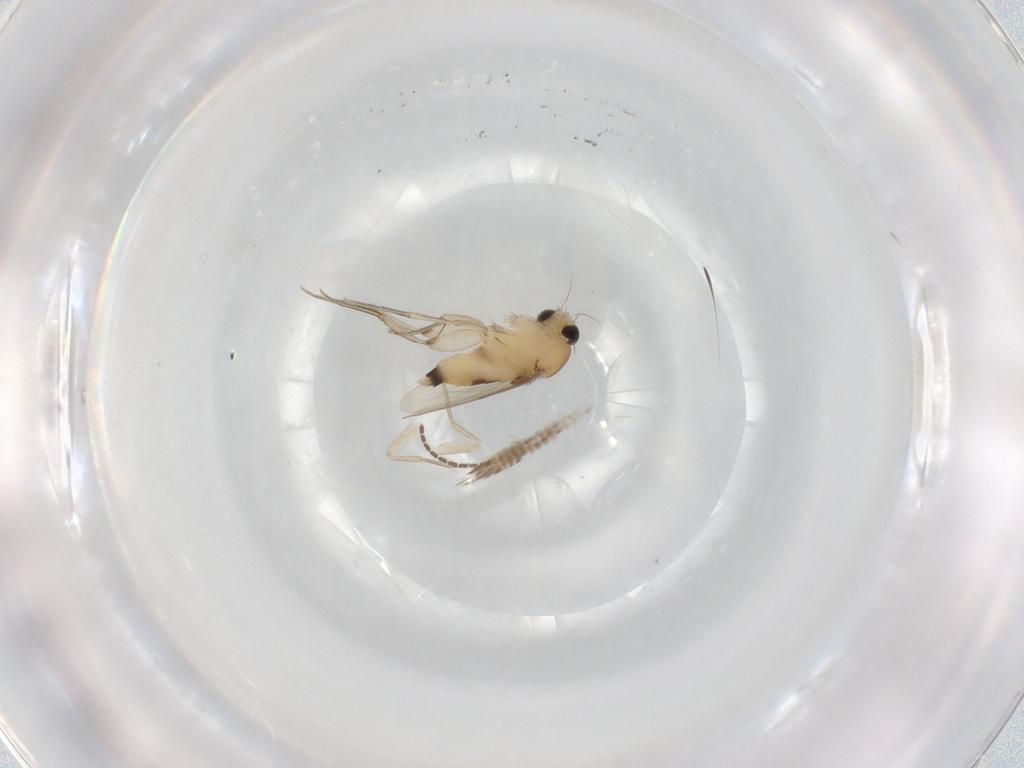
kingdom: Animalia
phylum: Arthropoda
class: Insecta
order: Diptera
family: Sciaridae
